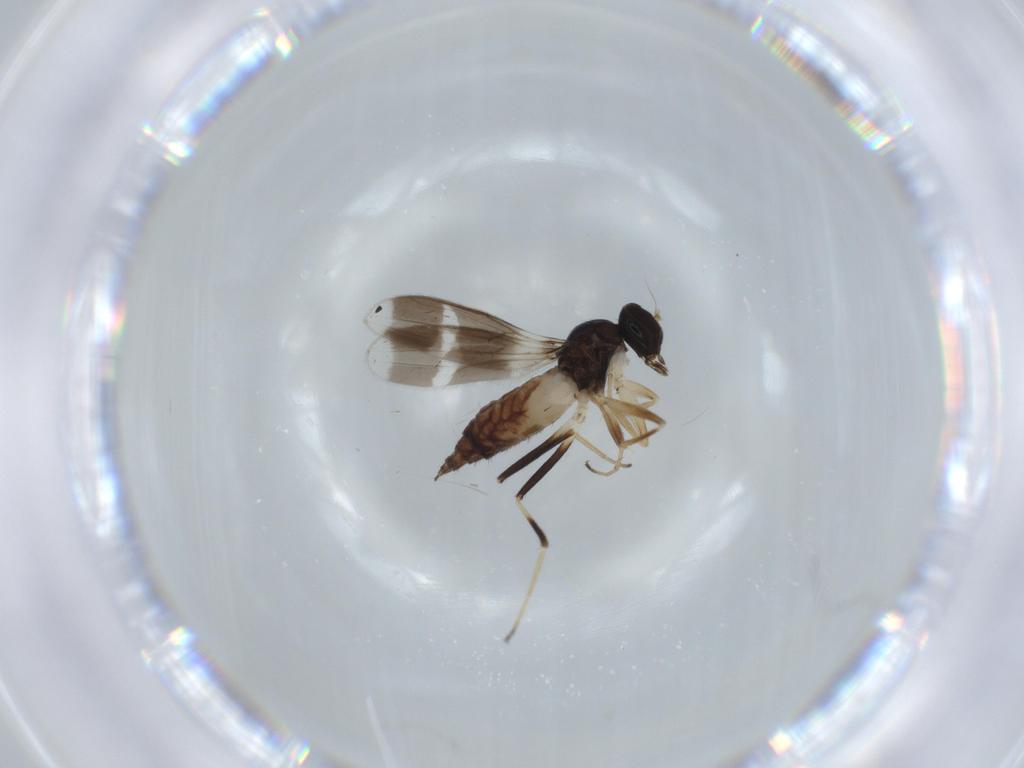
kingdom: Animalia
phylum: Arthropoda
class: Insecta
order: Diptera
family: Hybotidae
